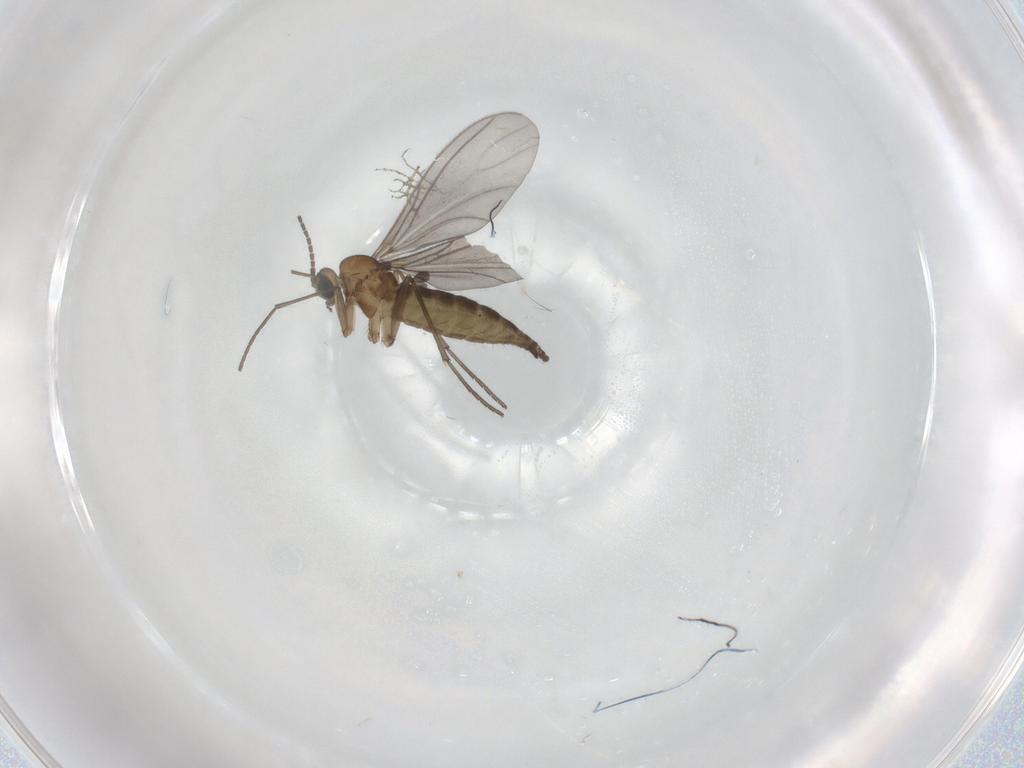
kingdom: Animalia
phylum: Arthropoda
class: Insecta
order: Diptera
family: Sciaridae
